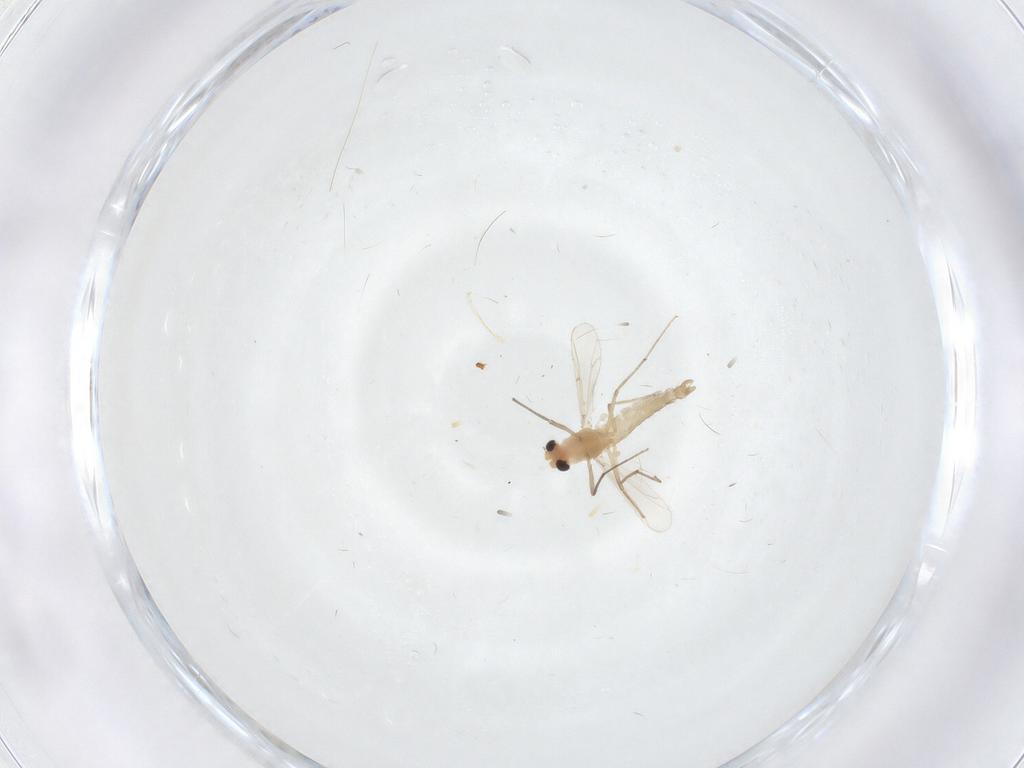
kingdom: Animalia
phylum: Arthropoda
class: Insecta
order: Diptera
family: Chironomidae
